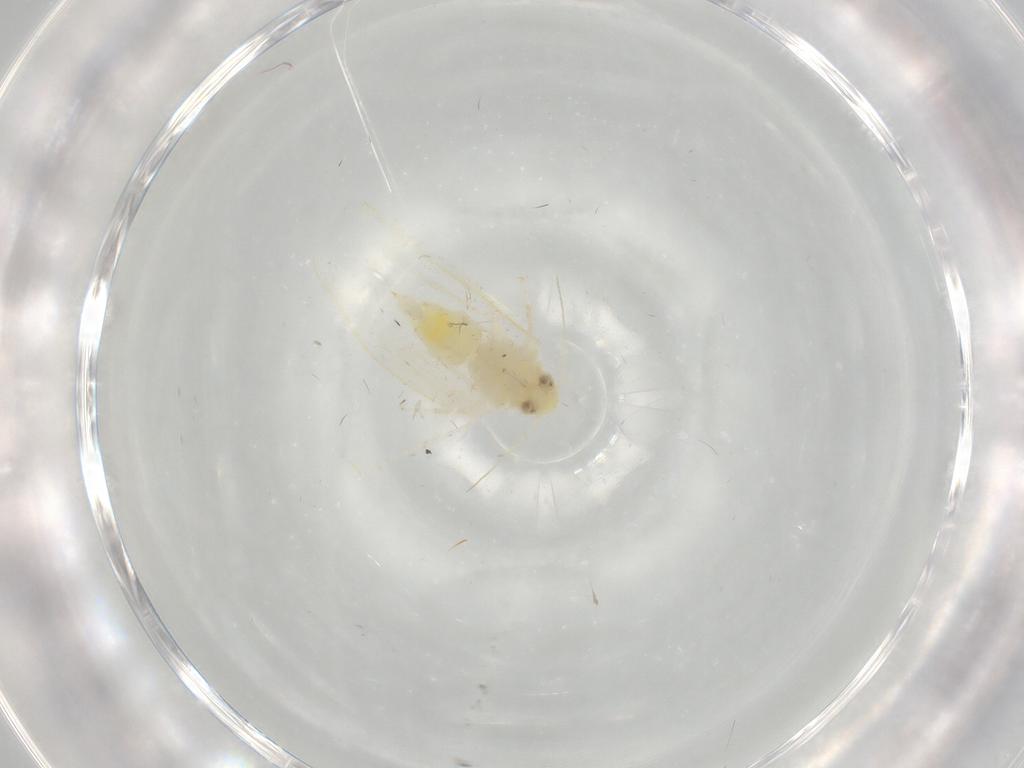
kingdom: Animalia
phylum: Arthropoda
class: Insecta
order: Hemiptera
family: Aleyrodidae
